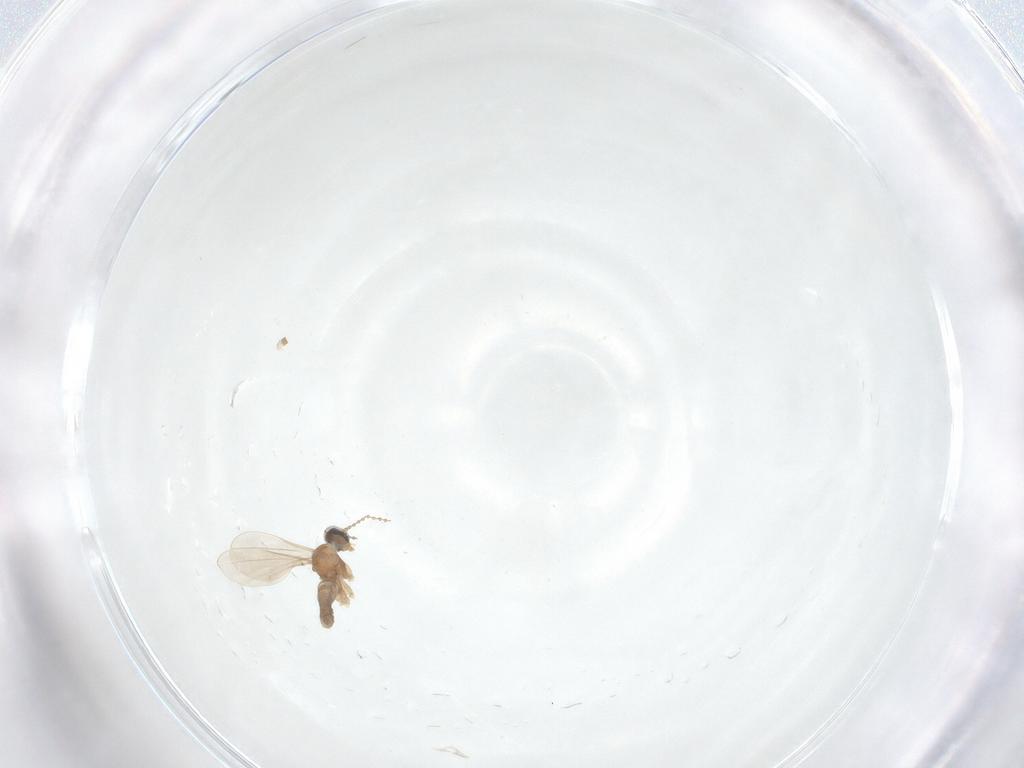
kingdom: Animalia
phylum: Arthropoda
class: Insecta
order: Diptera
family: Cecidomyiidae
